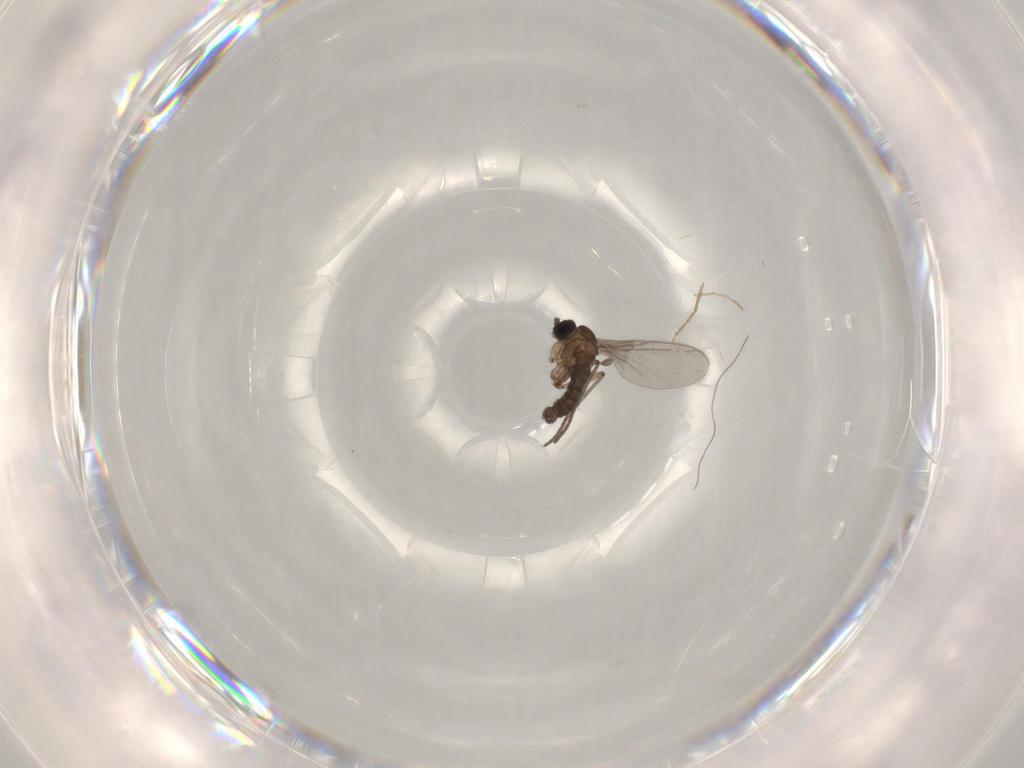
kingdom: Animalia
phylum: Arthropoda
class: Insecta
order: Diptera
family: Chironomidae
